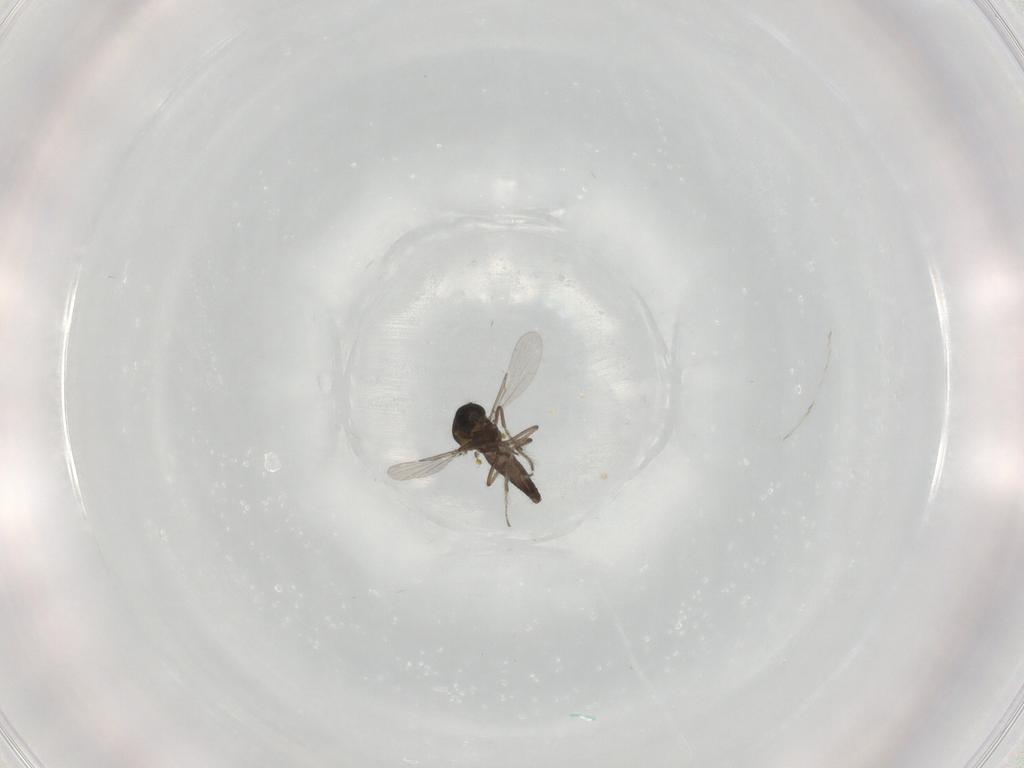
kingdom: Animalia
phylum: Arthropoda
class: Insecta
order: Diptera
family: Ceratopogonidae
